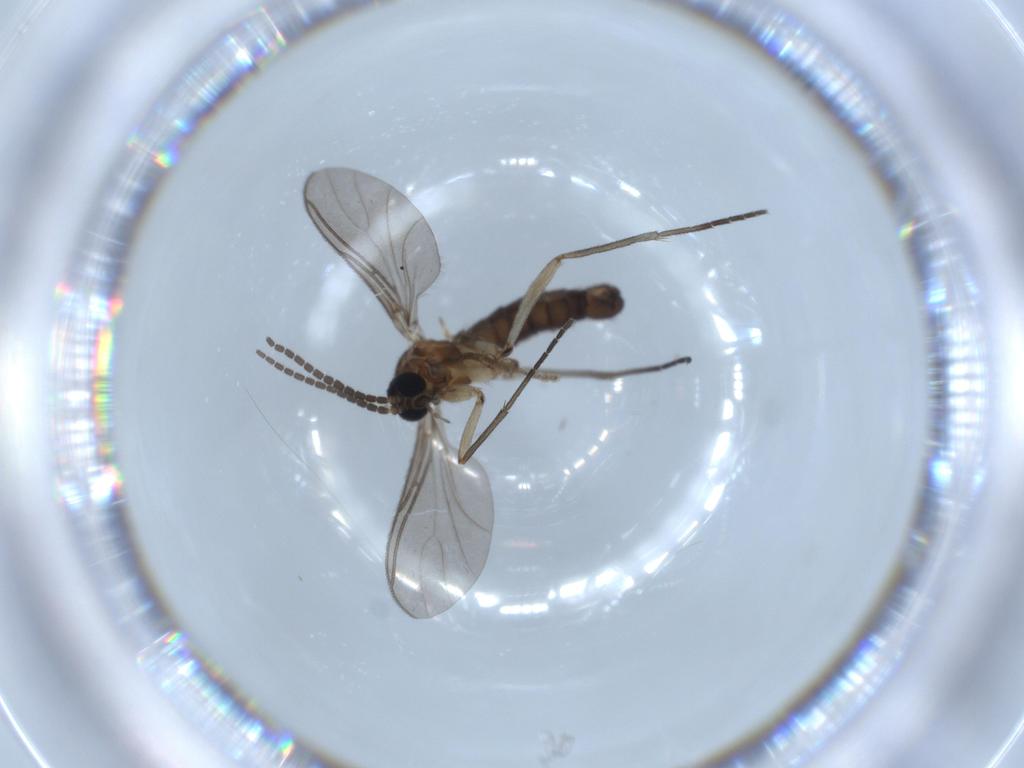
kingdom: Animalia
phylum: Arthropoda
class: Insecta
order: Diptera
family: Sciaridae
